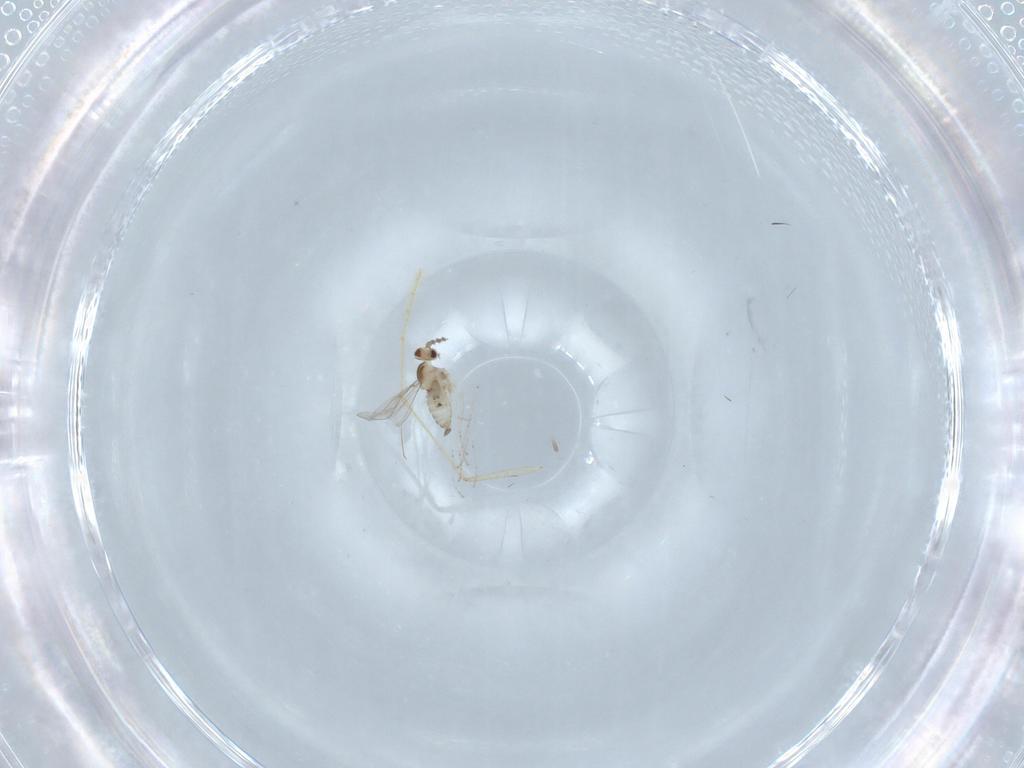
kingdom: Animalia
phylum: Arthropoda
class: Insecta
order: Diptera
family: Cecidomyiidae
